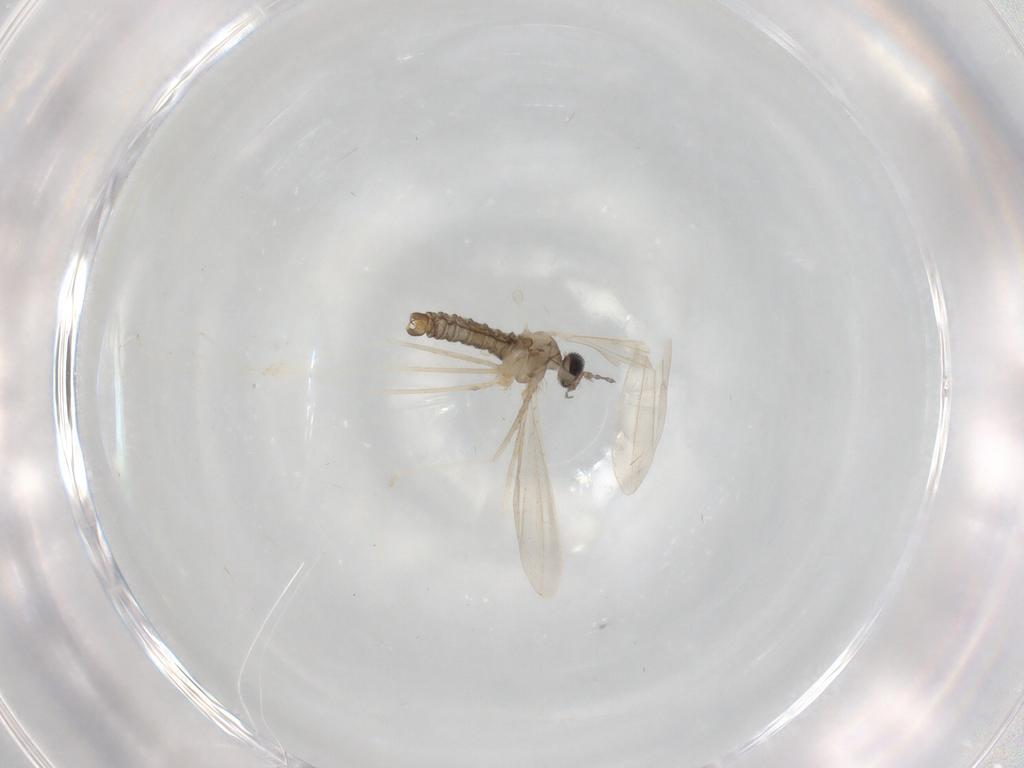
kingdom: Animalia
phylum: Arthropoda
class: Insecta
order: Diptera
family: Cecidomyiidae
